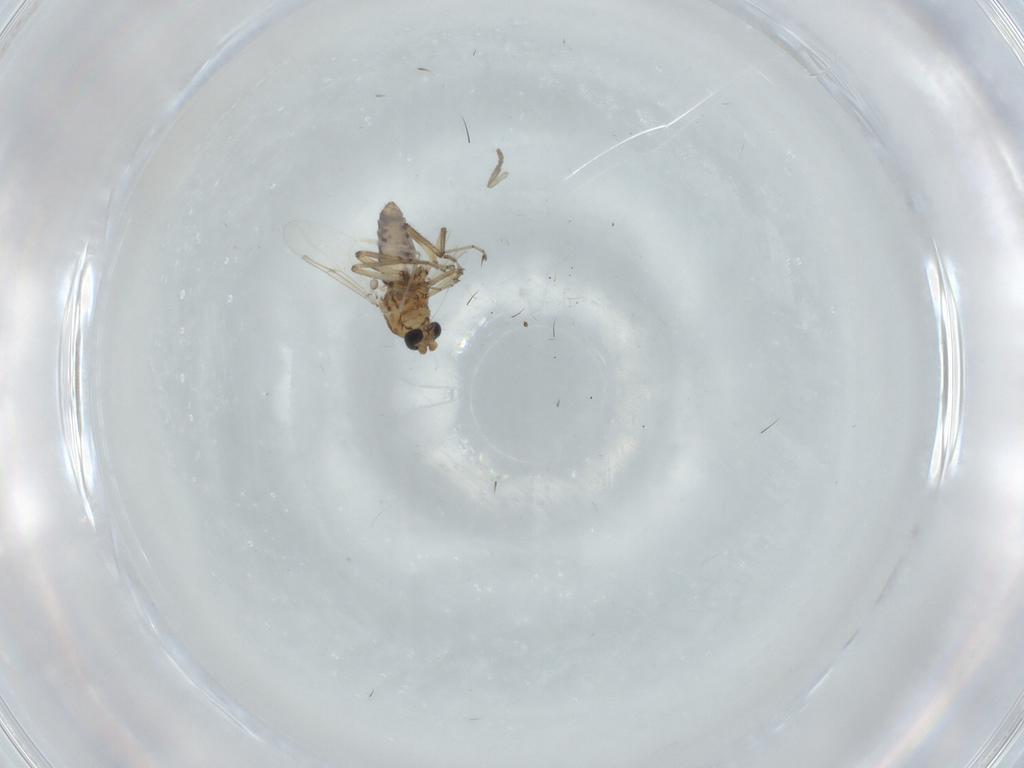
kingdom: Animalia
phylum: Arthropoda
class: Insecta
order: Diptera
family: Ceratopogonidae
